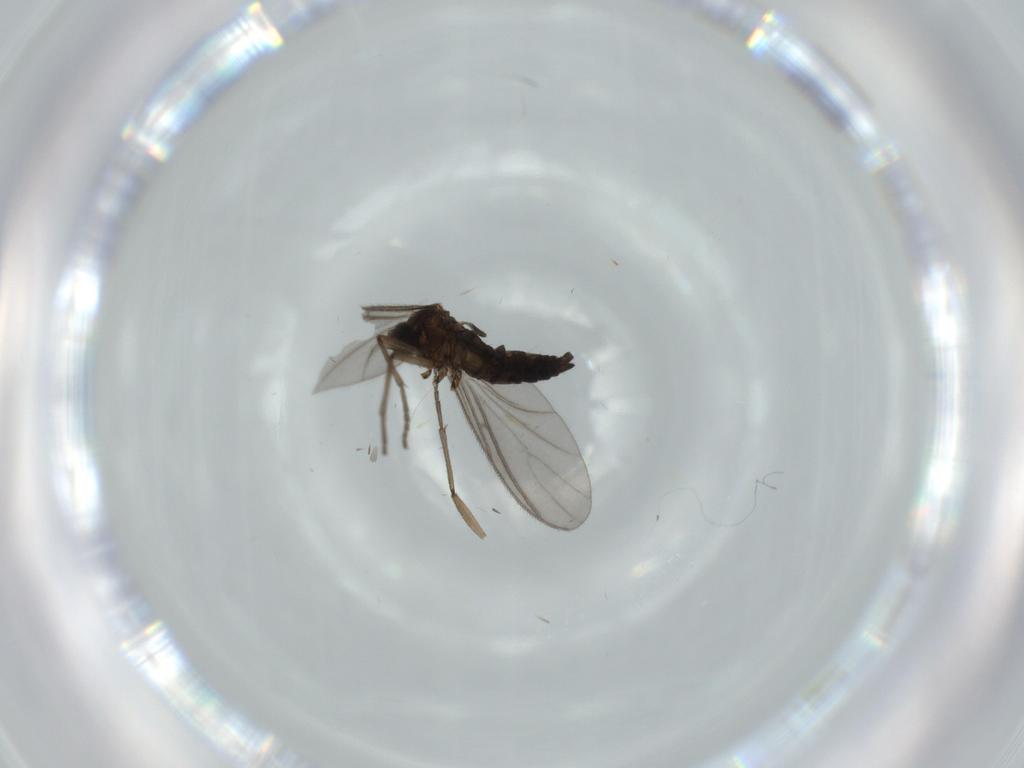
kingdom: Animalia
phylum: Arthropoda
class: Insecta
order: Diptera
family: Sciaridae
